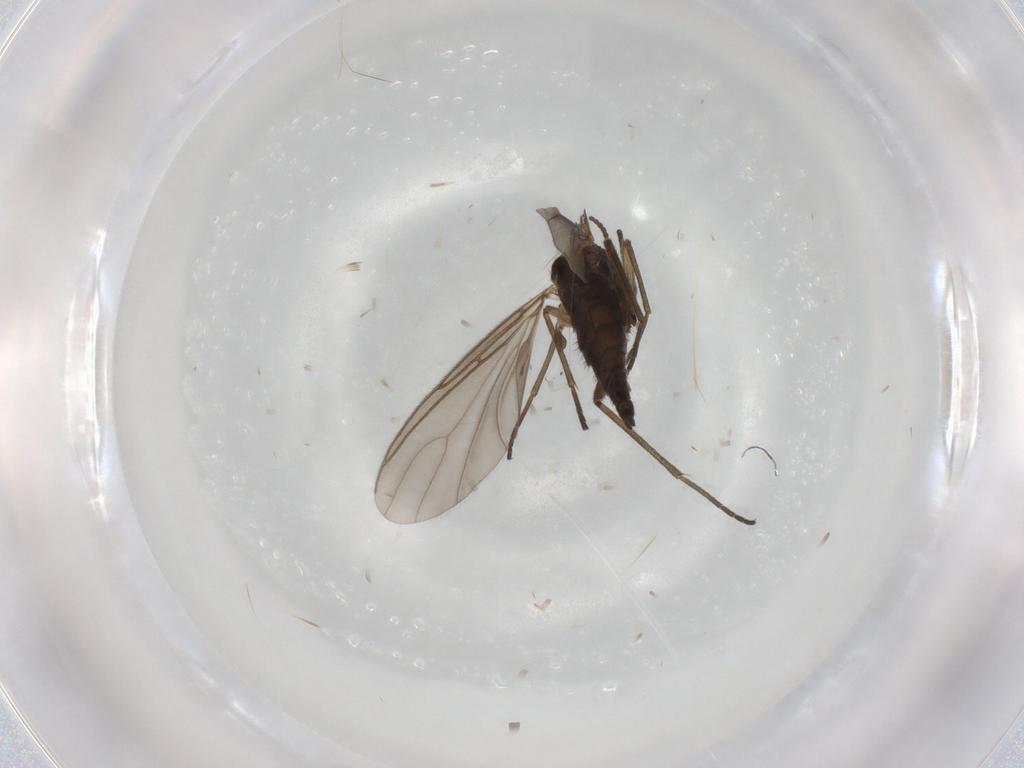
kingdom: Animalia
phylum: Arthropoda
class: Insecta
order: Diptera
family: Sciaridae
